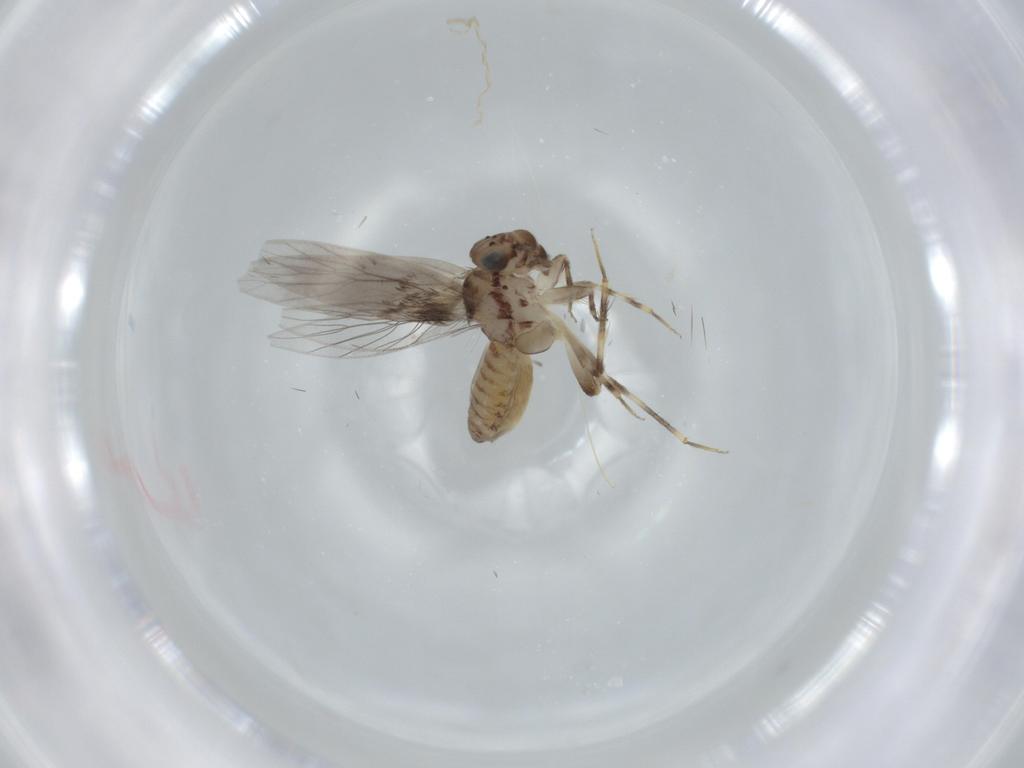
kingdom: Animalia
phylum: Arthropoda
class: Insecta
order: Psocodea
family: Lepidopsocidae
